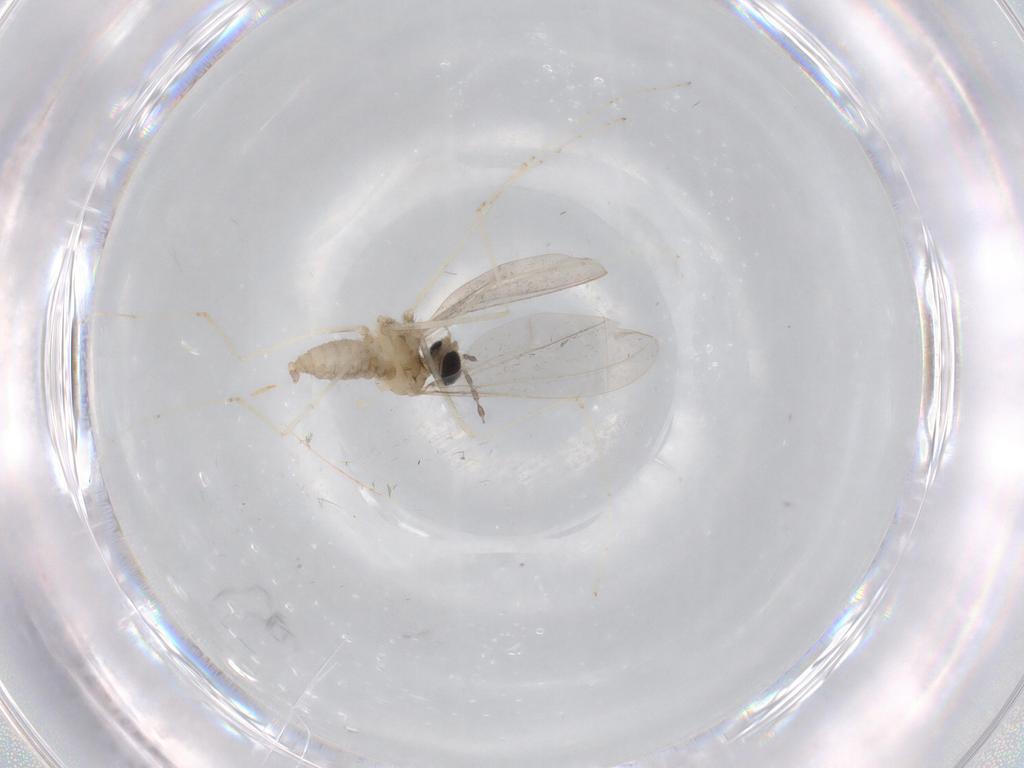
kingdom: Animalia
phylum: Arthropoda
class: Insecta
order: Diptera
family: Cecidomyiidae
